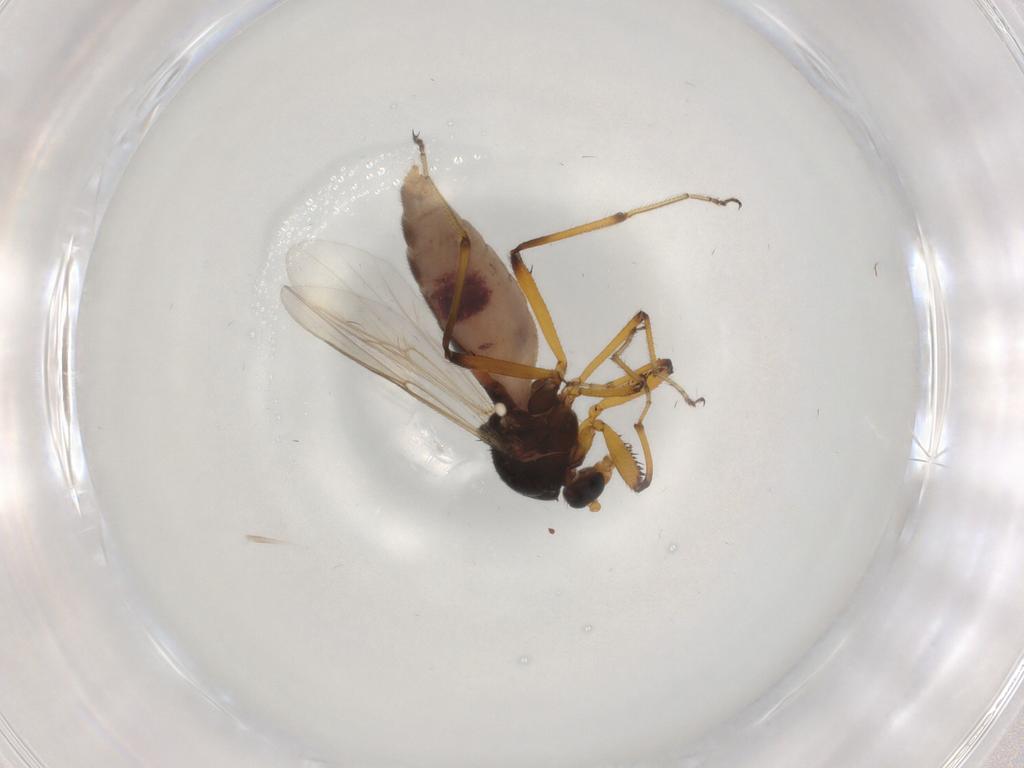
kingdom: Animalia
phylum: Arthropoda
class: Insecta
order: Diptera
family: Ceratopogonidae
